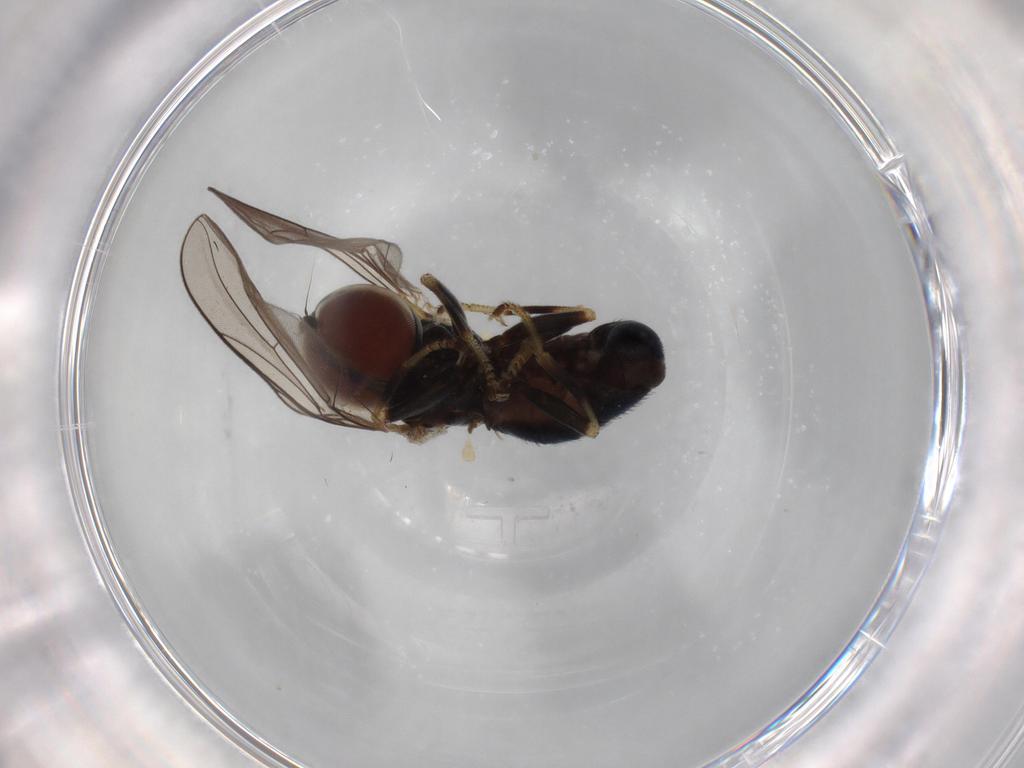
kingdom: Animalia
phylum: Arthropoda
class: Insecta
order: Diptera
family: Pipunculidae
